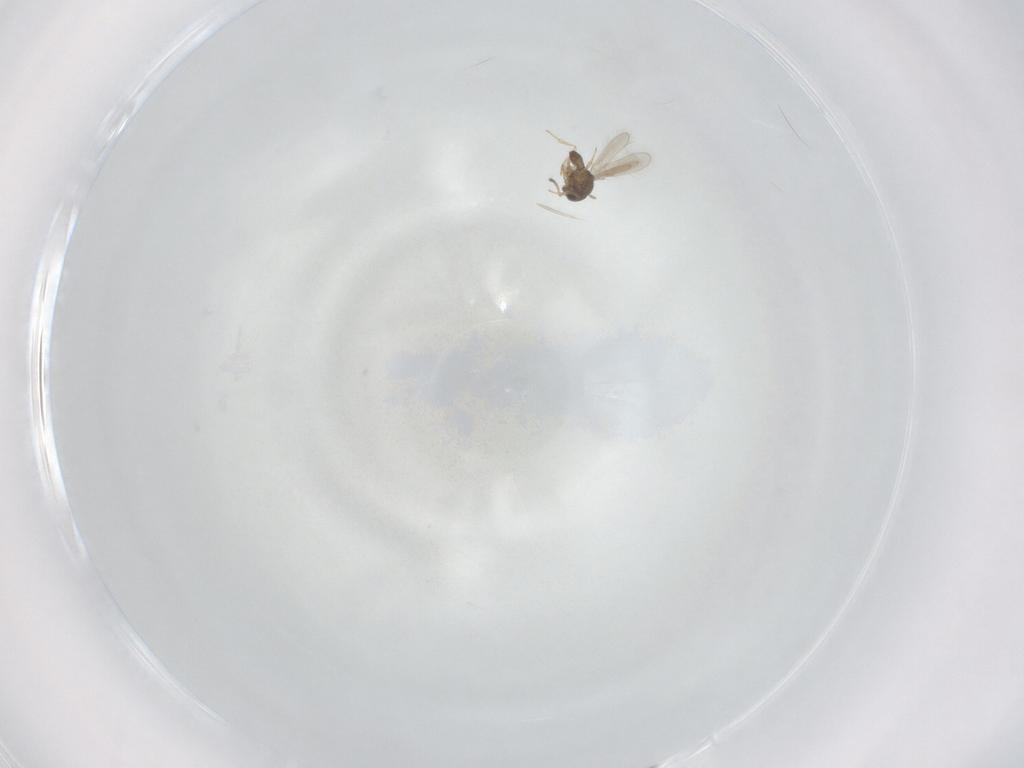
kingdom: Animalia
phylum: Arthropoda
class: Insecta
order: Hymenoptera
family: Scelionidae
